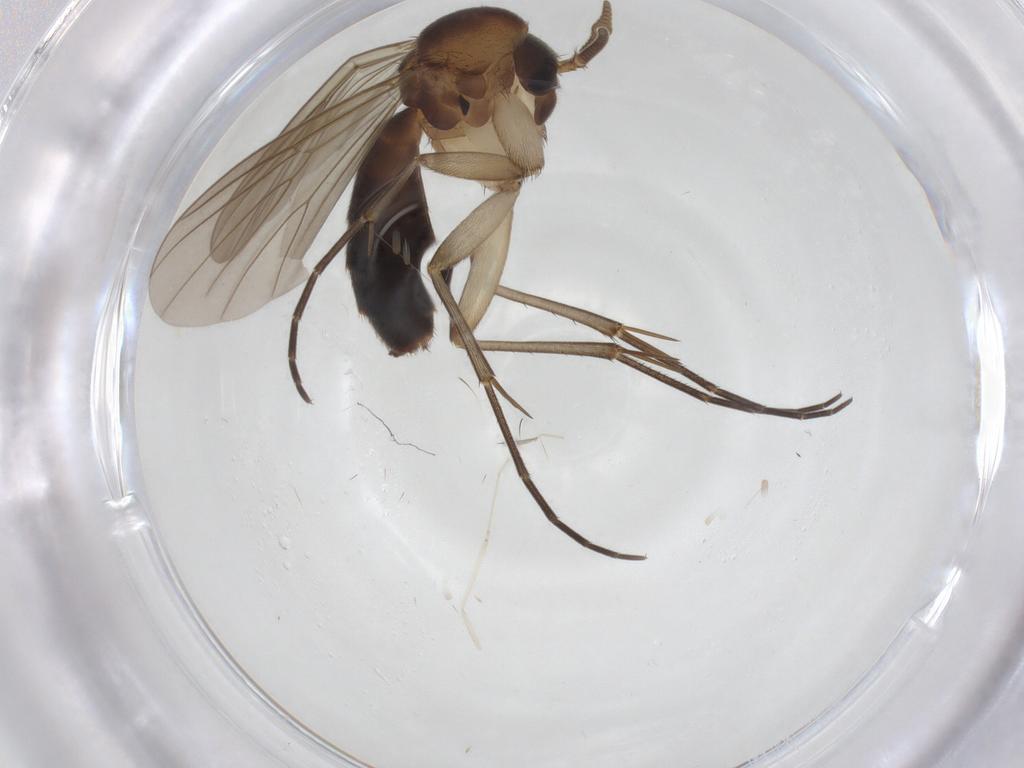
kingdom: Animalia
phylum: Arthropoda
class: Insecta
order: Diptera
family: Mycetophilidae
